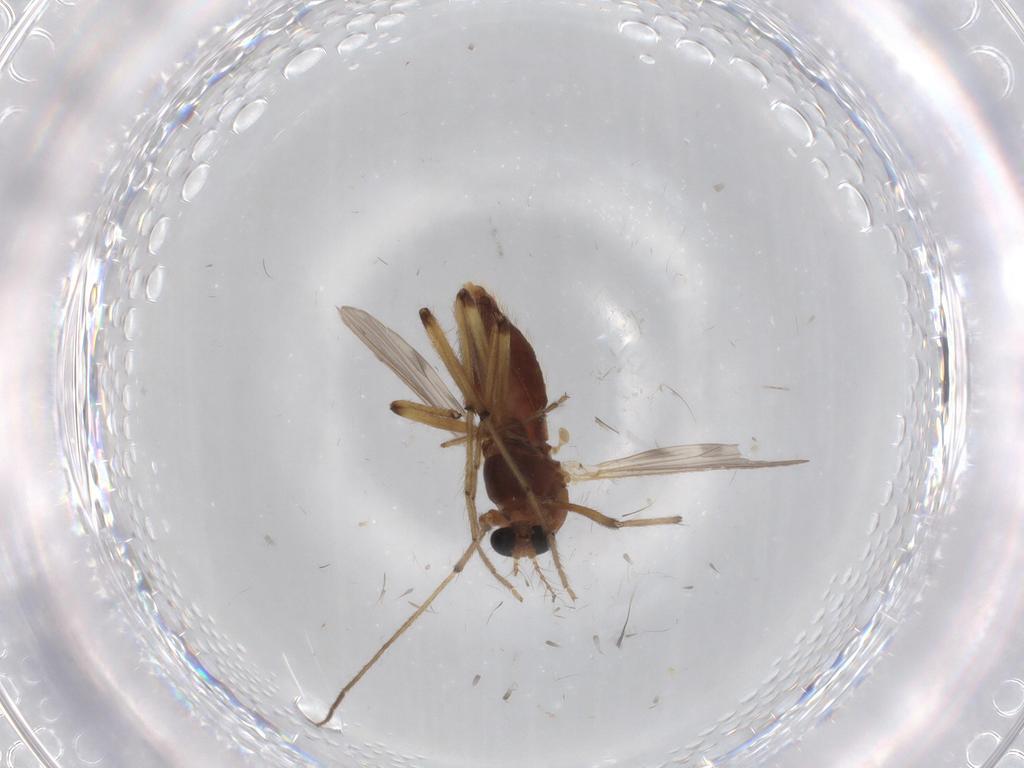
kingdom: Animalia
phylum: Arthropoda
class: Insecta
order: Diptera
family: Chironomidae
